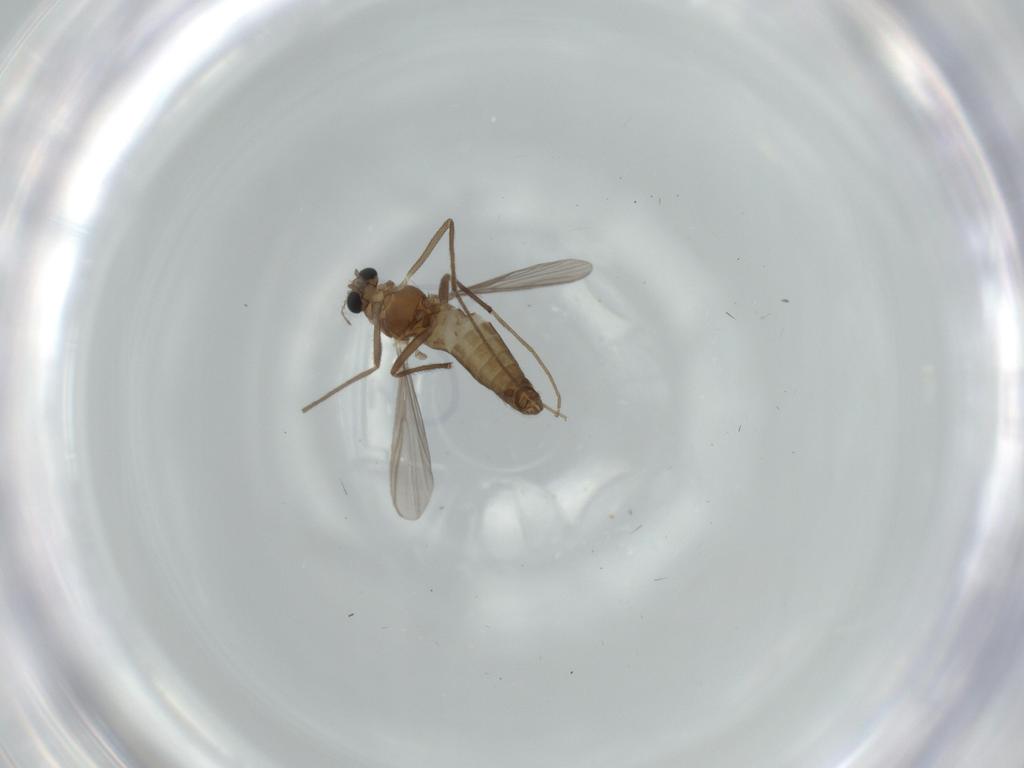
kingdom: Animalia
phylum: Arthropoda
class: Insecta
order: Diptera
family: Chironomidae
